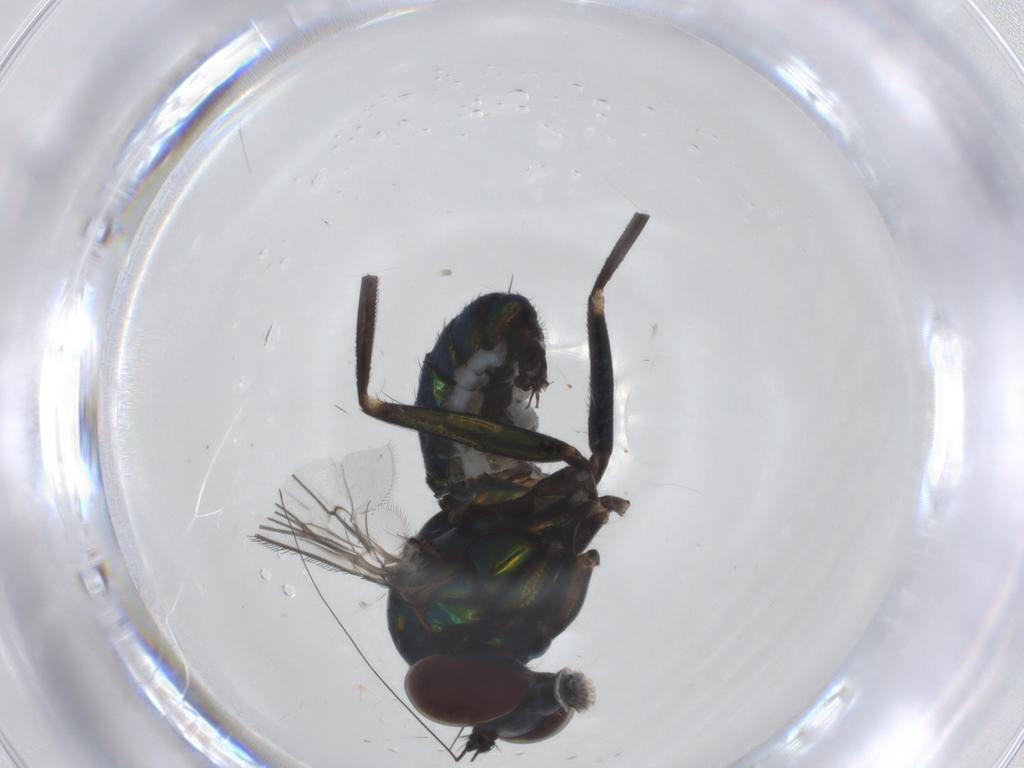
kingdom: Animalia
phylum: Arthropoda
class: Insecta
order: Diptera
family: Dolichopodidae
